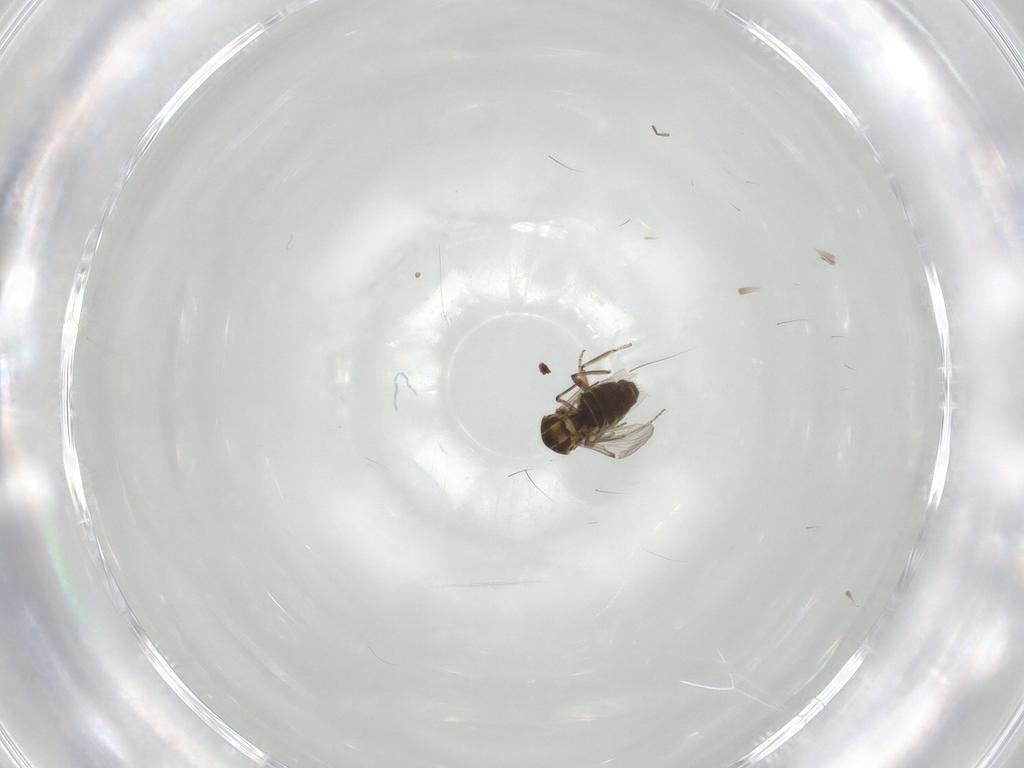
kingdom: Animalia
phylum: Arthropoda
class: Insecta
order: Diptera
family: Ceratopogonidae
